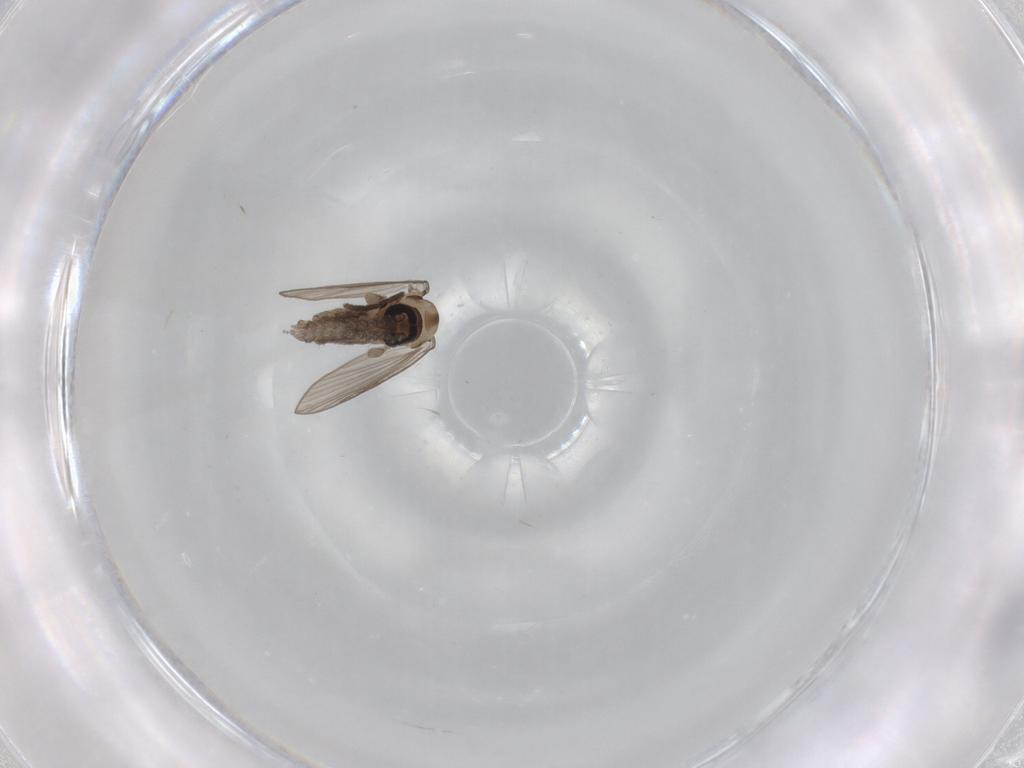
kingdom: Animalia
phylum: Arthropoda
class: Insecta
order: Diptera
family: Psychodidae
